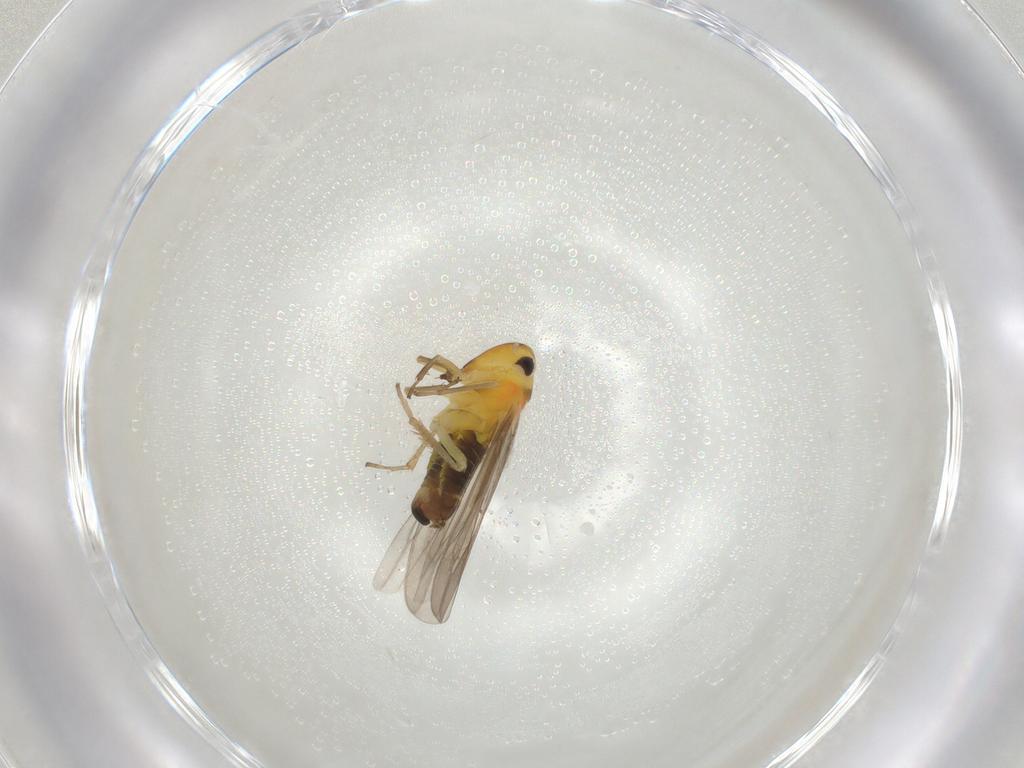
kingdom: Animalia
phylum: Arthropoda
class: Insecta
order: Hemiptera
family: Cicadellidae
